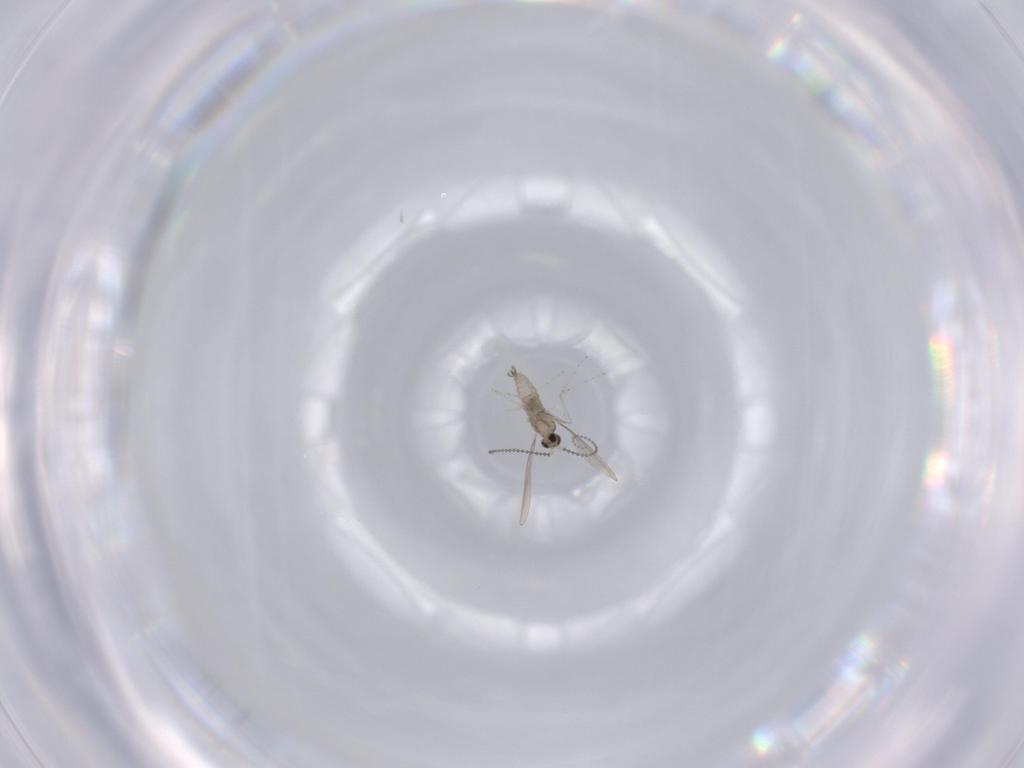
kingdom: Animalia
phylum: Arthropoda
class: Insecta
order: Diptera
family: Cecidomyiidae
